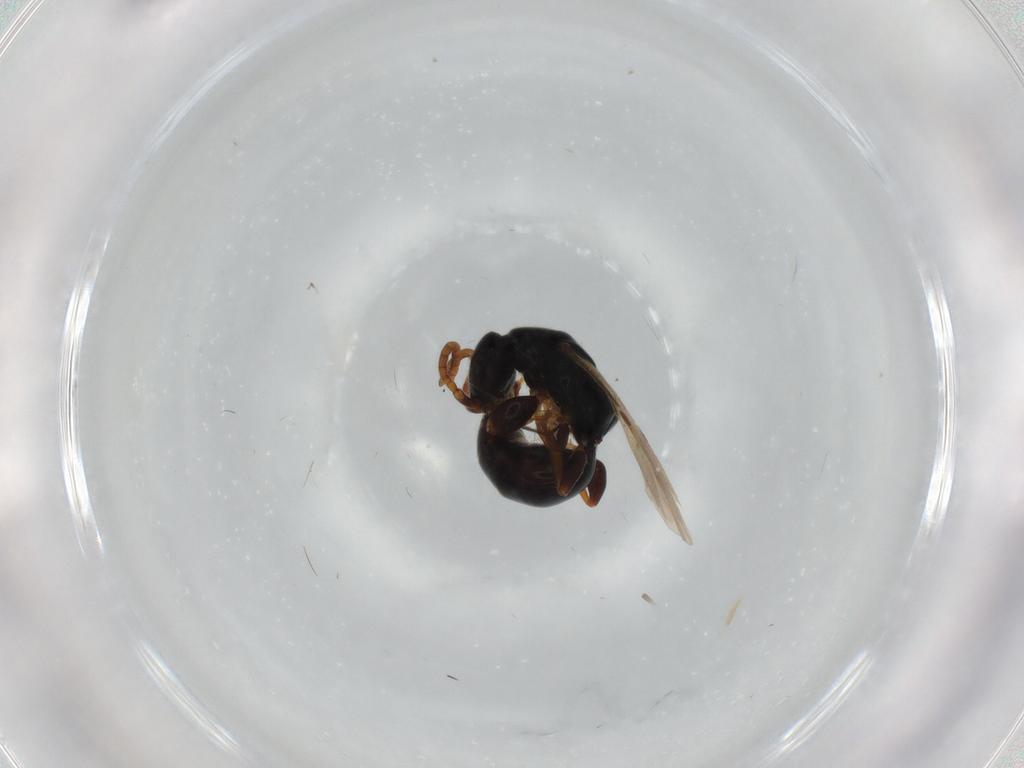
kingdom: Animalia
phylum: Arthropoda
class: Insecta
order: Hymenoptera
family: Bethylidae
